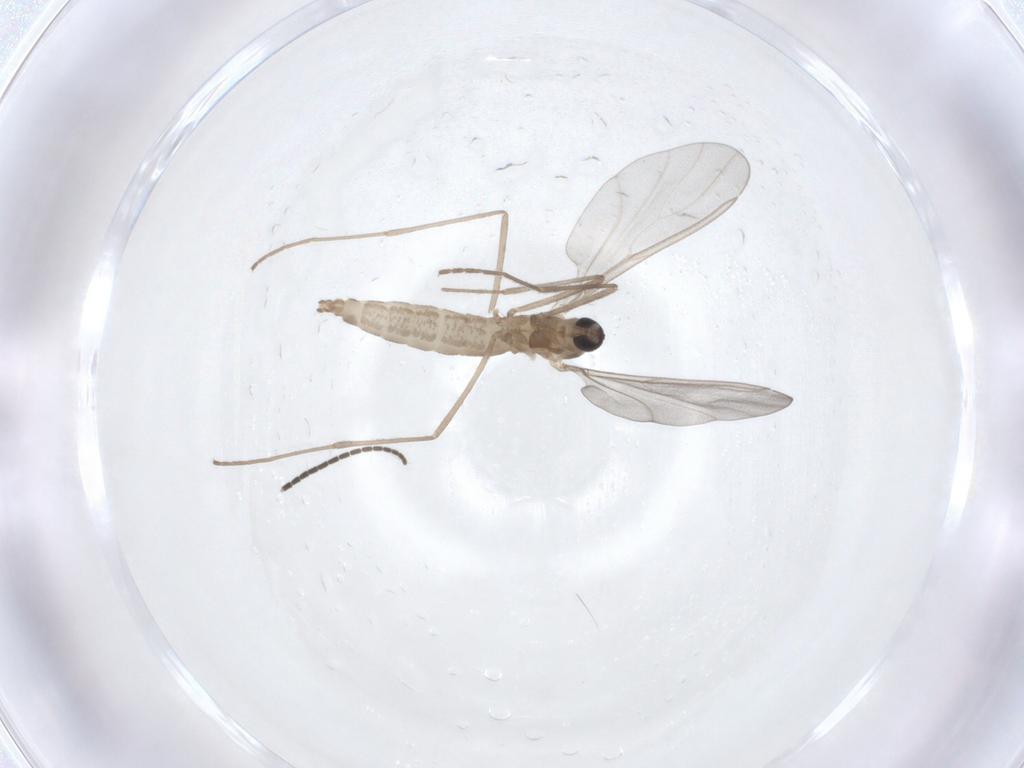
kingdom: Animalia
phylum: Arthropoda
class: Insecta
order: Diptera
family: Cecidomyiidae
